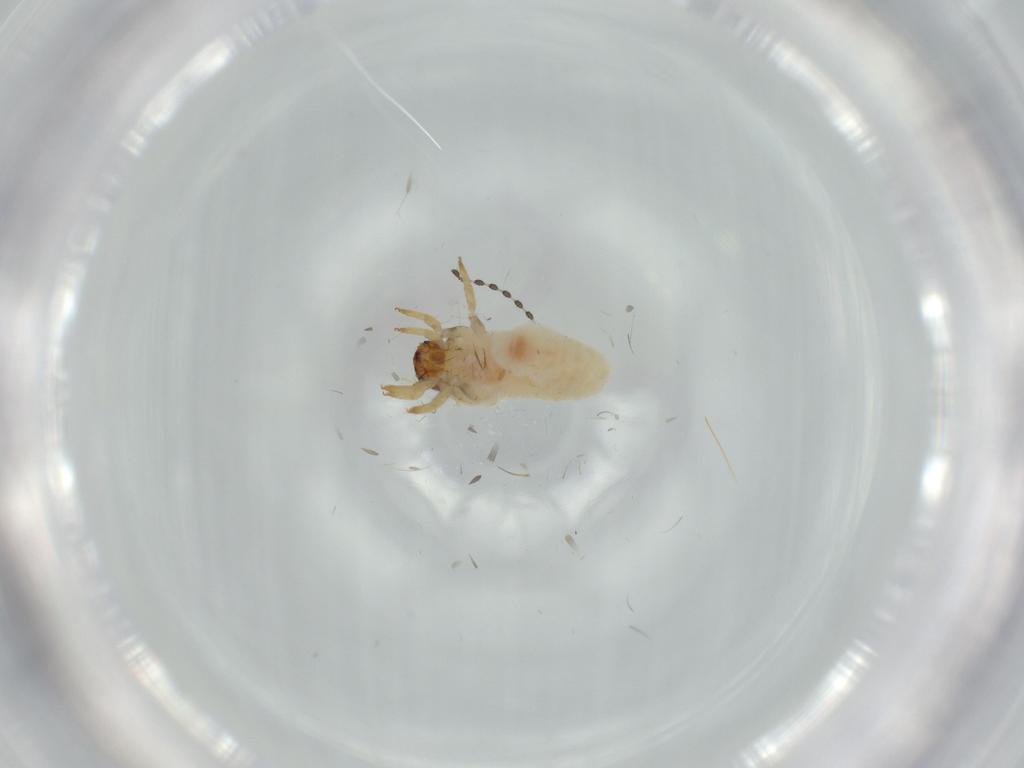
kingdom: Animalia
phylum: Arthropoda
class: Insecta
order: Coleoptera
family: Chrysomelidae
